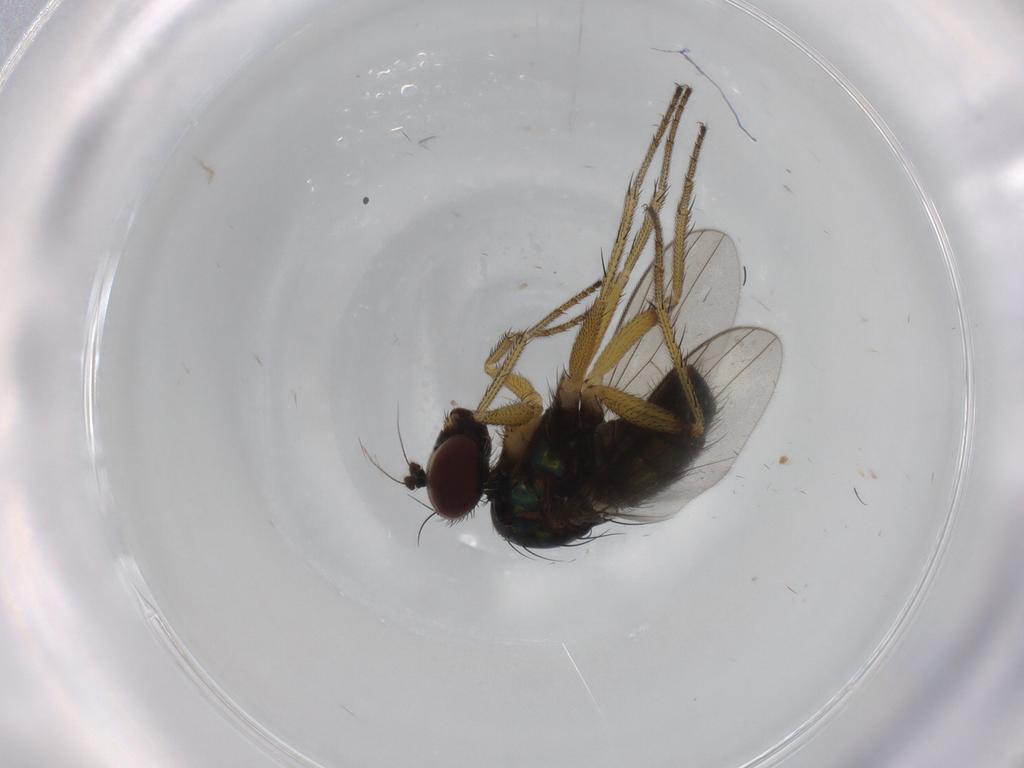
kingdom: Animalia
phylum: Arthropoda
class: Insecta
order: Diptera
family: Dolichopodidae
